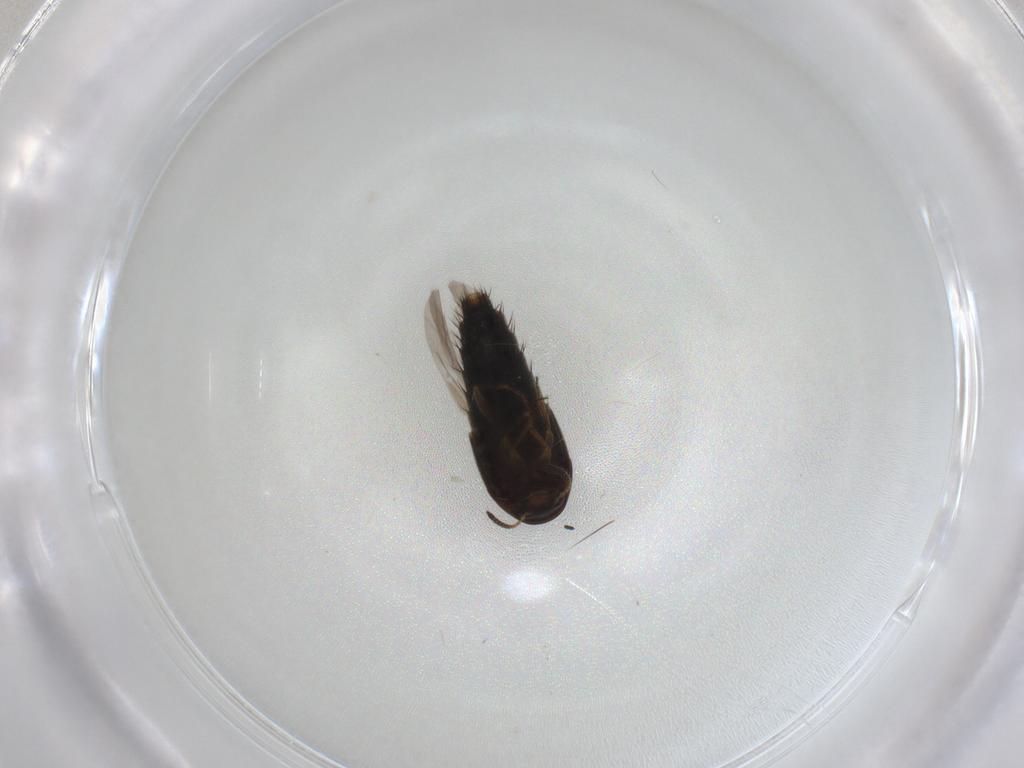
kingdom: Animalia
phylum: Arthropoda
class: Insecta
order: Coleoptera
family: Staphylinidae
